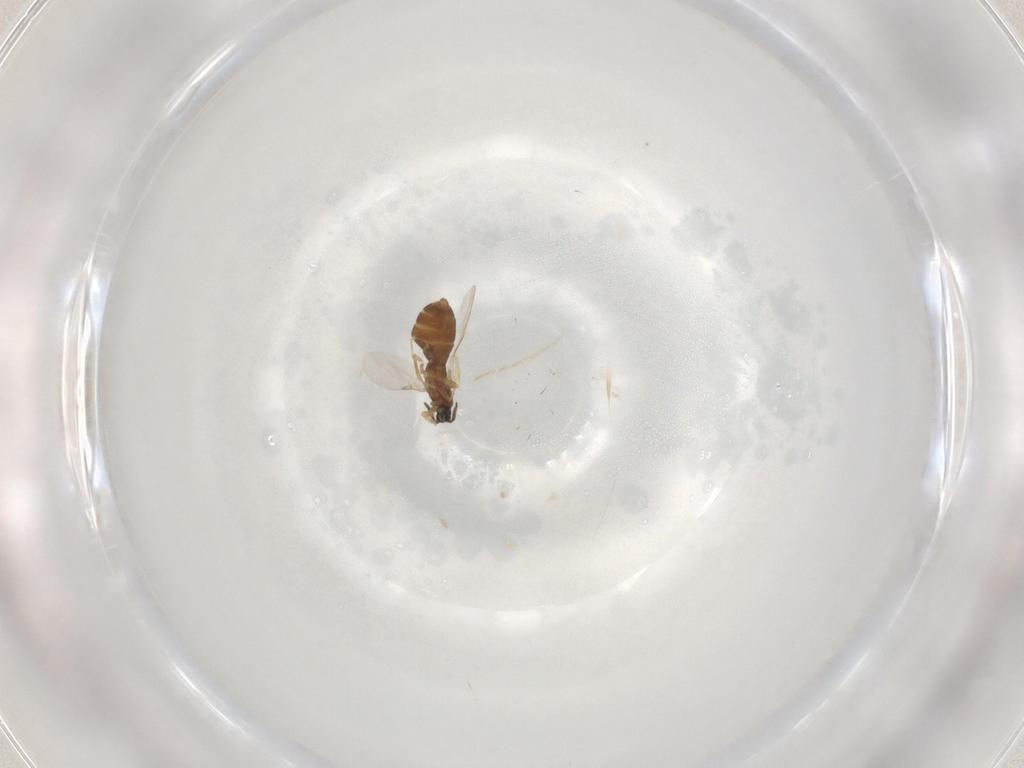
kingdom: Animalia
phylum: Arthropoda
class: Insecta
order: Diptera
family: Scatopsidae
